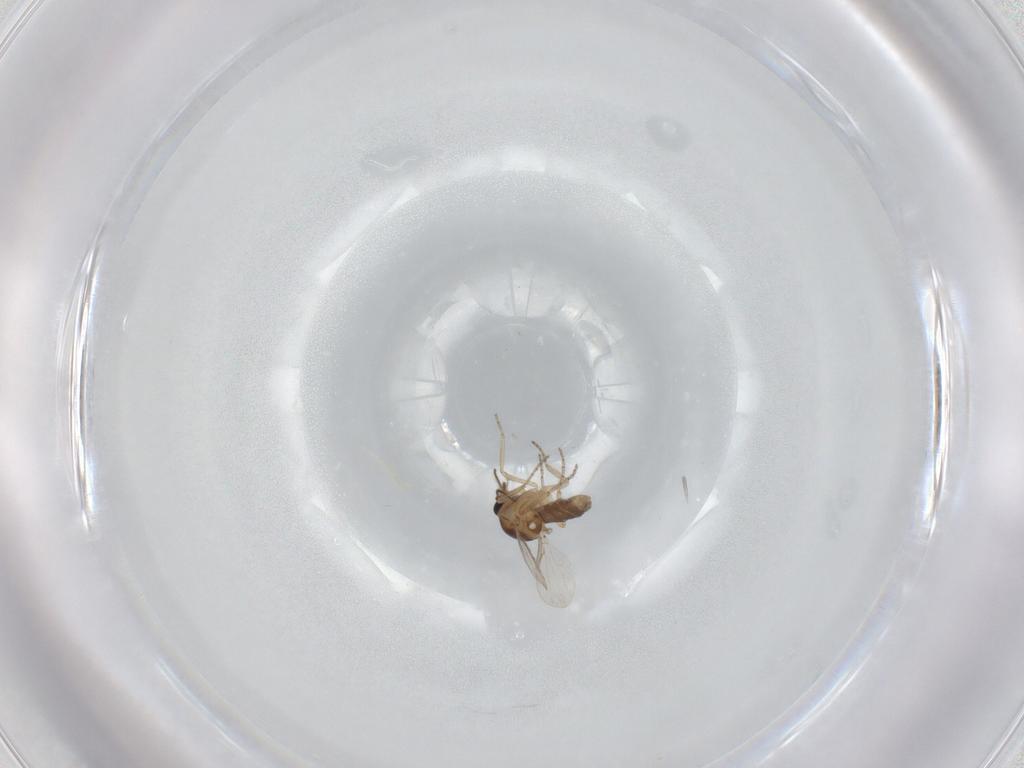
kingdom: Animalia
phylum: Arthropoda
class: Insecta
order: Diptera
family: Ceratopogonidae
